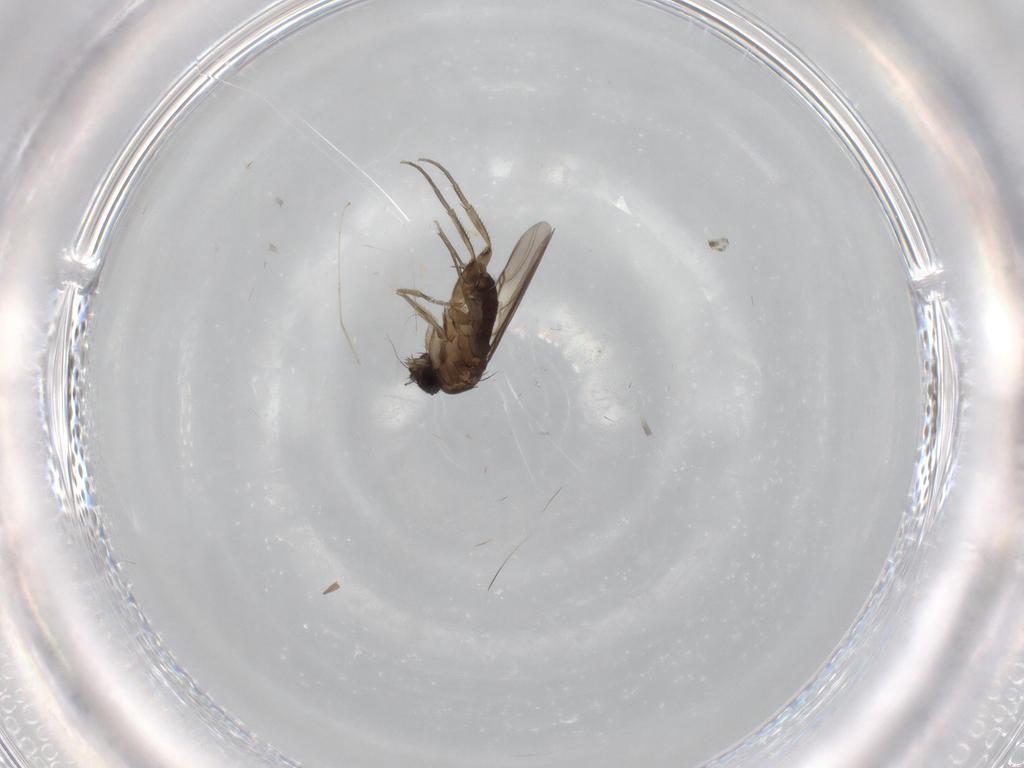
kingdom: Animalia
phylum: Arthropoda
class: Insecta
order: Diptera
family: Phoridae
